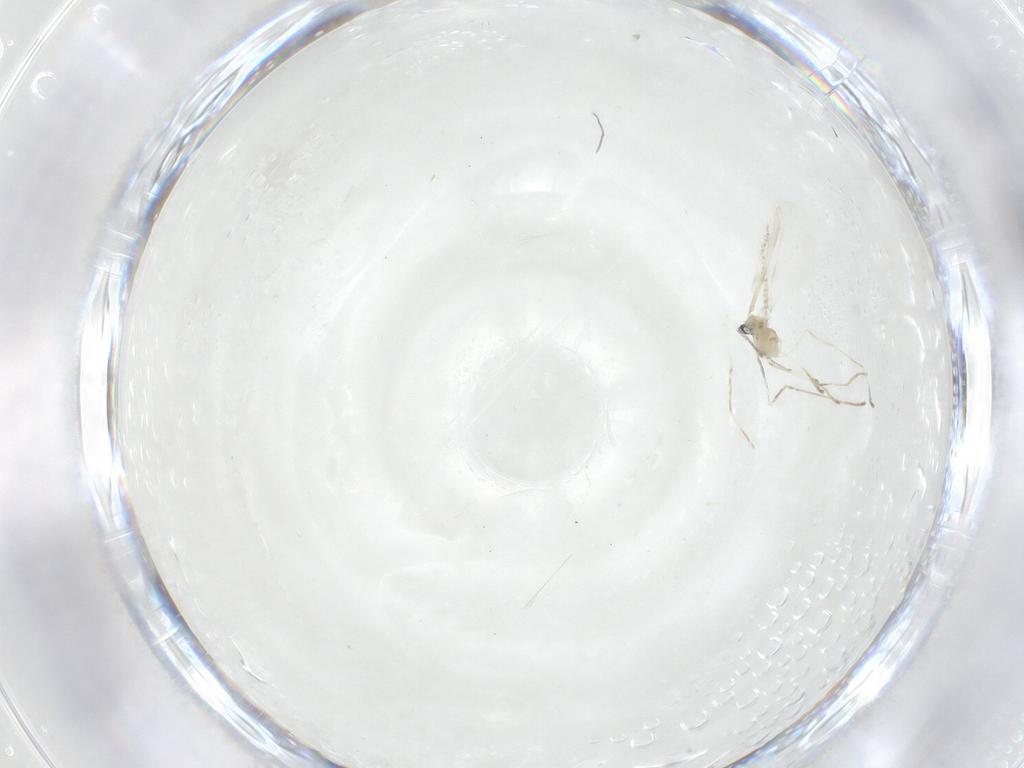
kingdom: Animalia
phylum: Arthropoda
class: Insecta
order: Diptera
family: Cecidomyiidae
